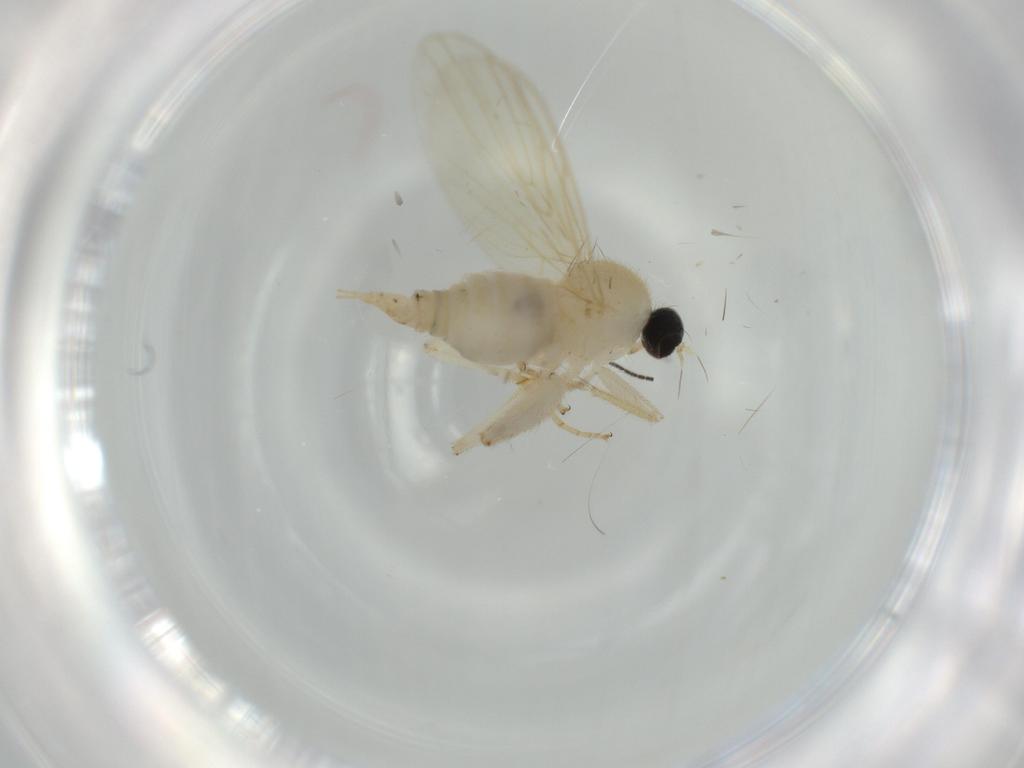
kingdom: Animalia
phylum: Arthropoda
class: Insecta
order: Diptera
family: Hybotidae
